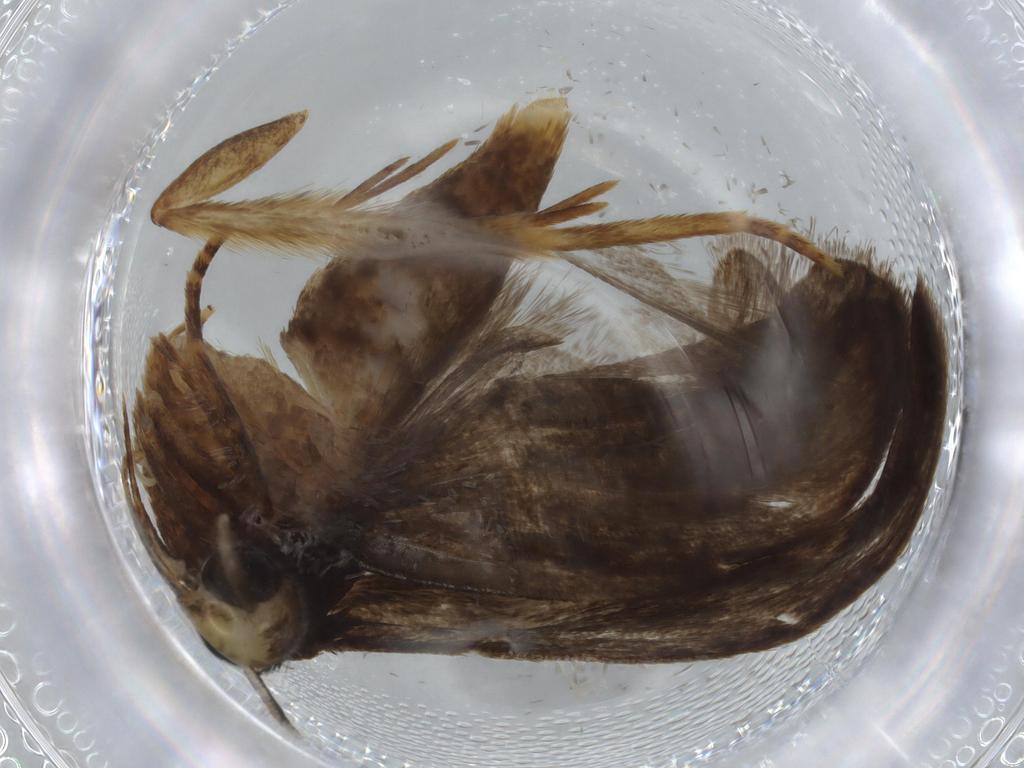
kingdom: Animalia
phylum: Arthropoda
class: Insecta
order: Lepidoptera
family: Autostichidae
